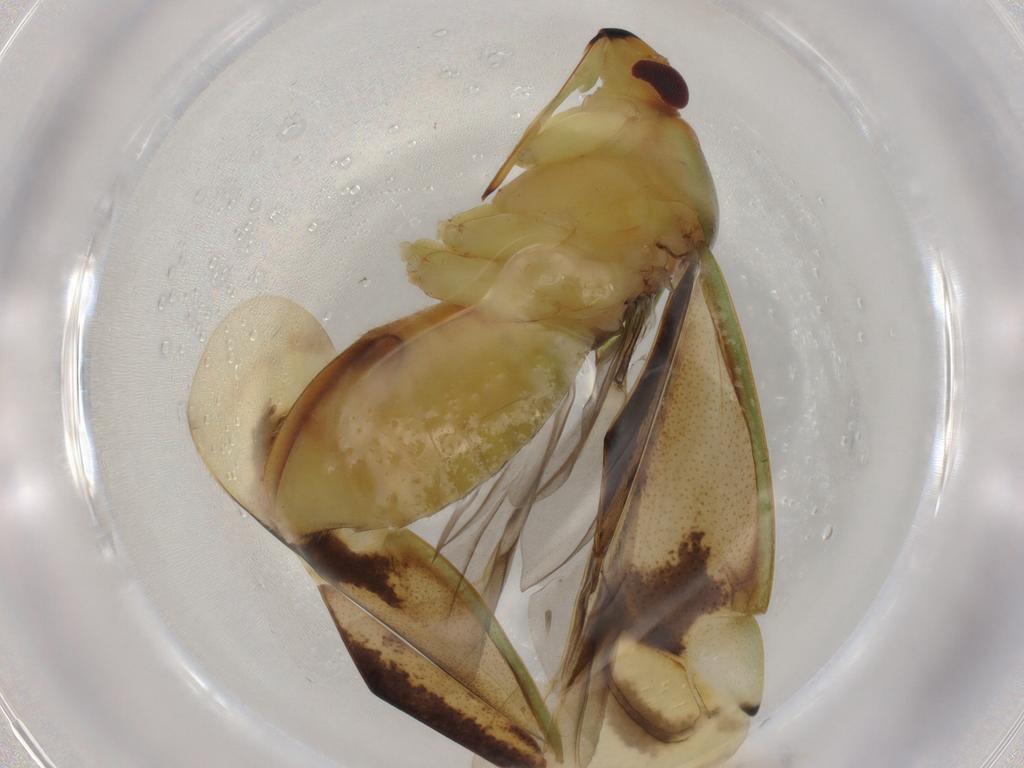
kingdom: Animalia
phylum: Arthropoda
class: Insecta
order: Hemiptera
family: Miridae
